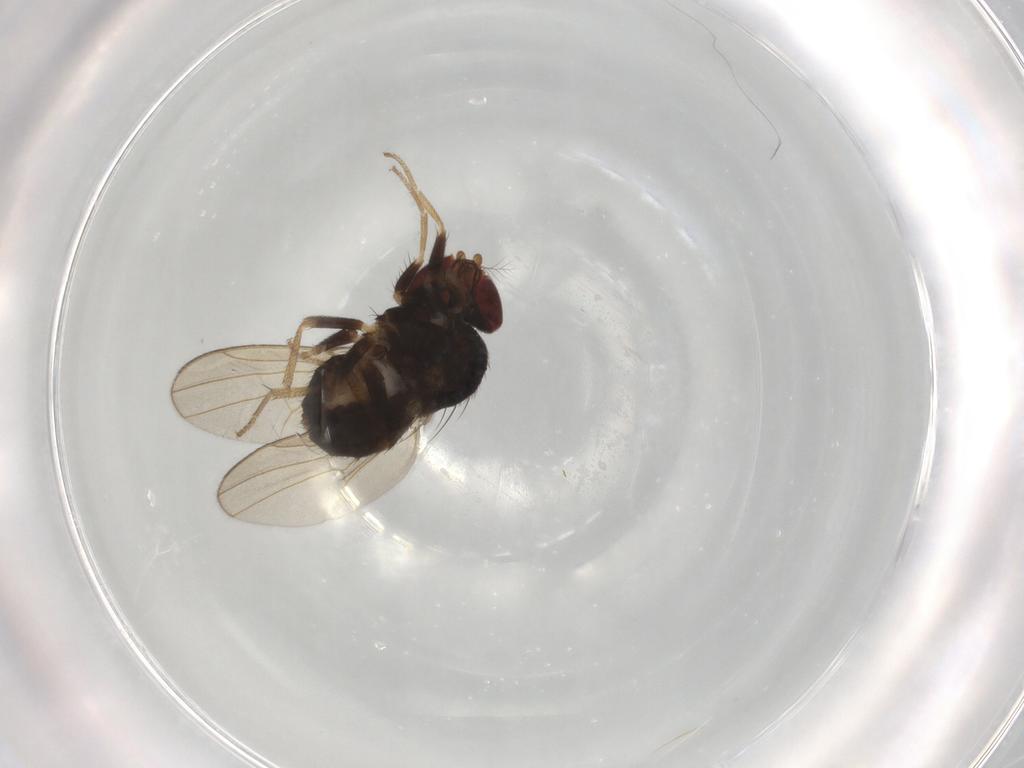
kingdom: Animalia
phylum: Arthropoda
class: Insecta
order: Diptera
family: Drosophilidae
